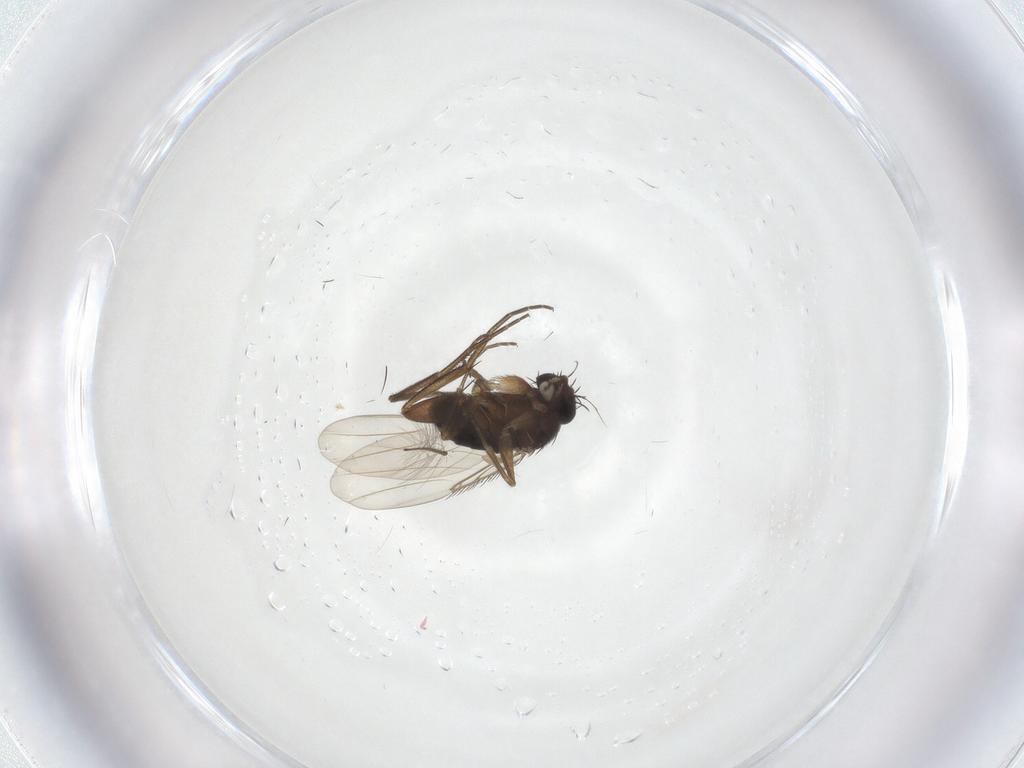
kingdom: Animalia
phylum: Arthropoda
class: Insecta
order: Diptera
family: Phoridae
